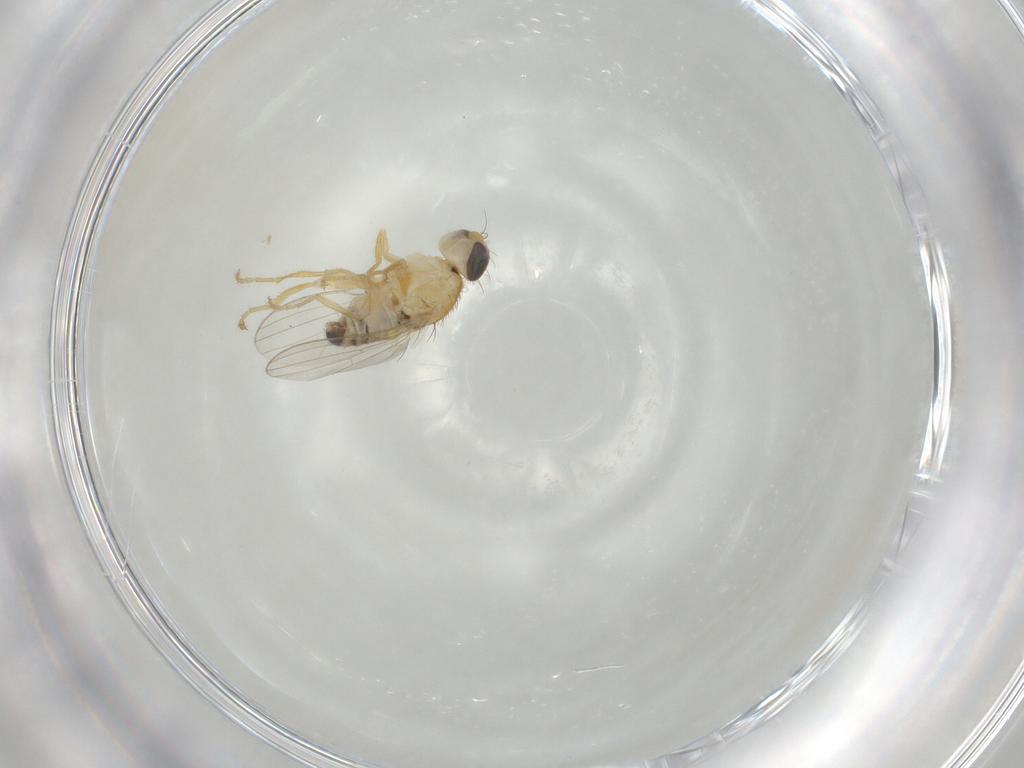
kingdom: Animalia
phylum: Arthropoda
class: Insecta
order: Diptera
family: Chyromyidae
